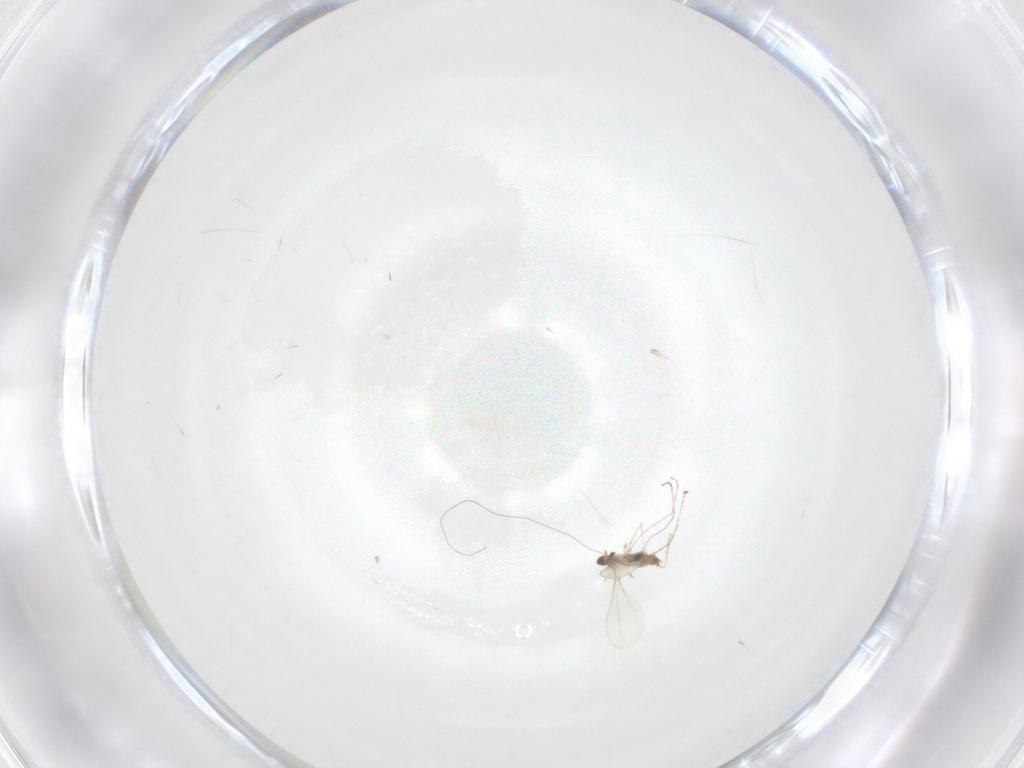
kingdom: Animalia
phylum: Arthropoda
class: Insecta
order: Diptera
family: Cecidomyiidae
